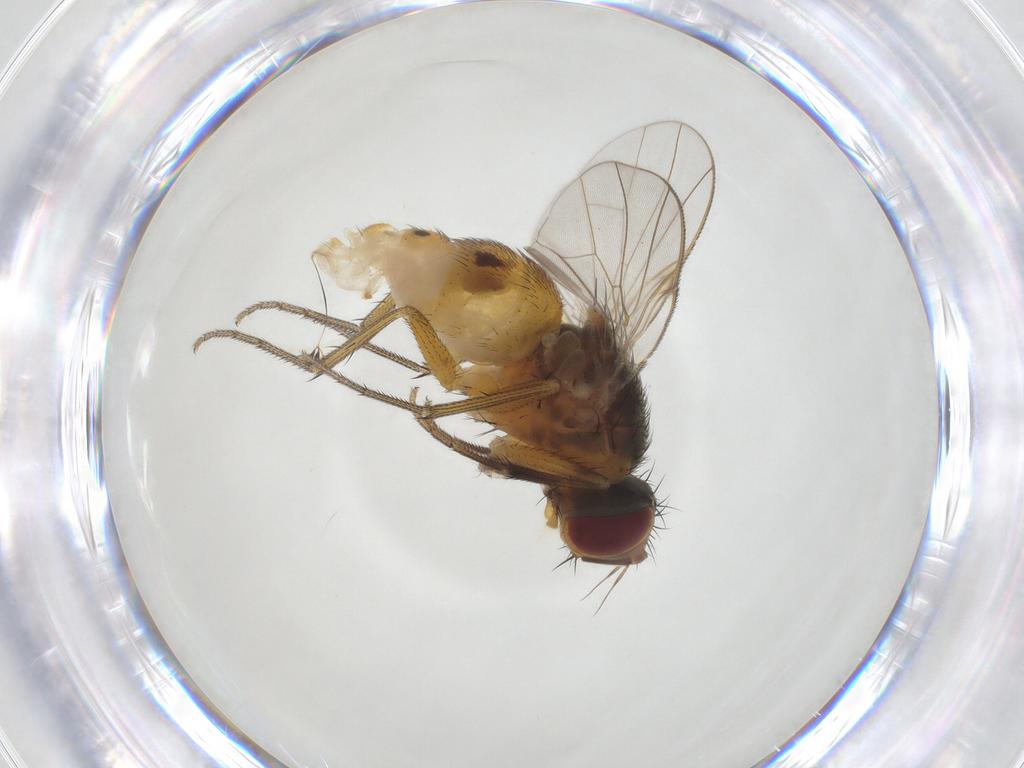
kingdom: Animalia
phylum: Arthropoda
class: Insecta
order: Diptera
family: Muscidae
